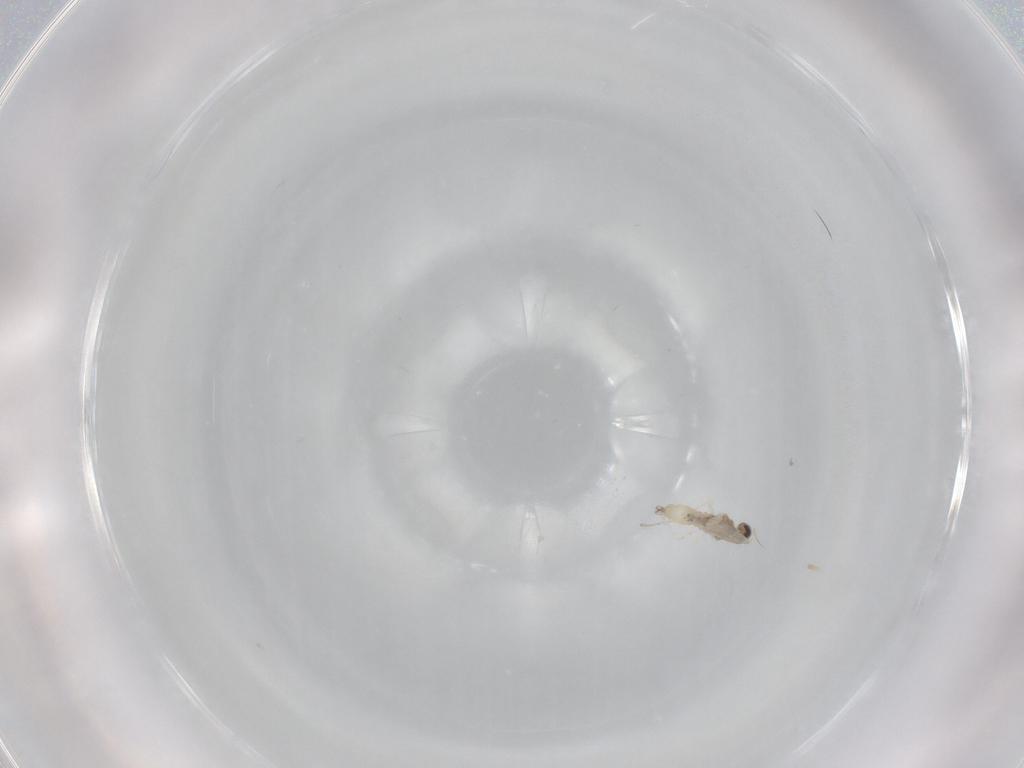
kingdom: Animalia
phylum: Arthropoda
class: Insecta
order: Diptera
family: Cecidomyiidae
